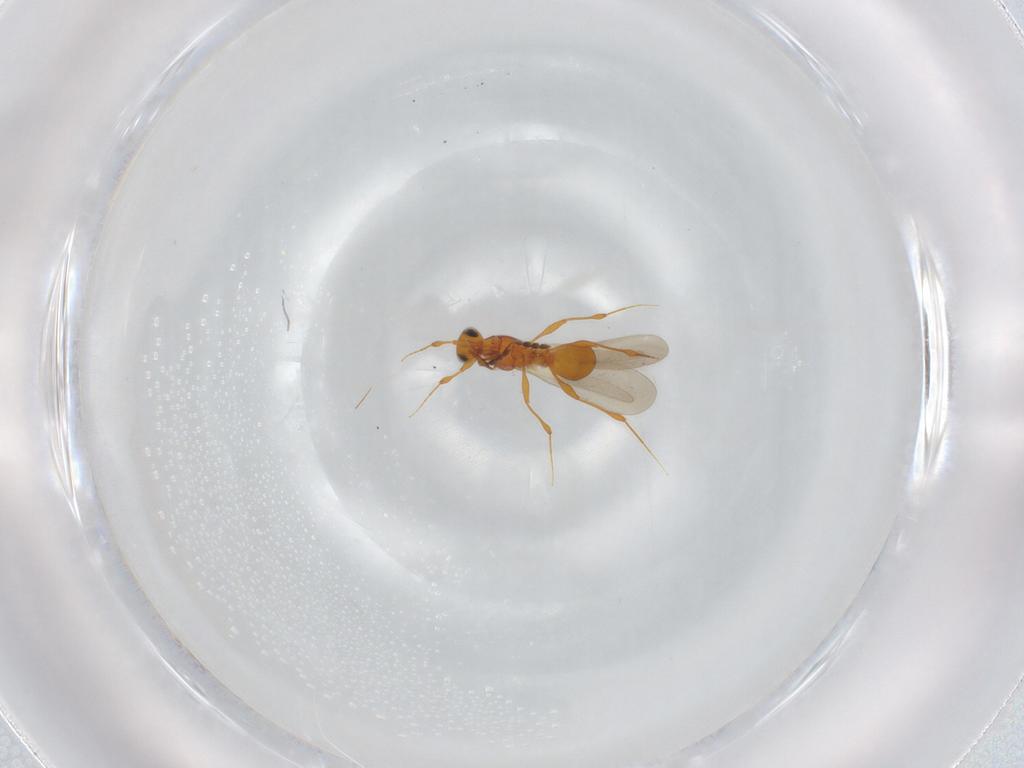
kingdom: Animalia
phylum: Arthropoda
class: Insecta
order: Hymenoptera
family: Platygastridae
